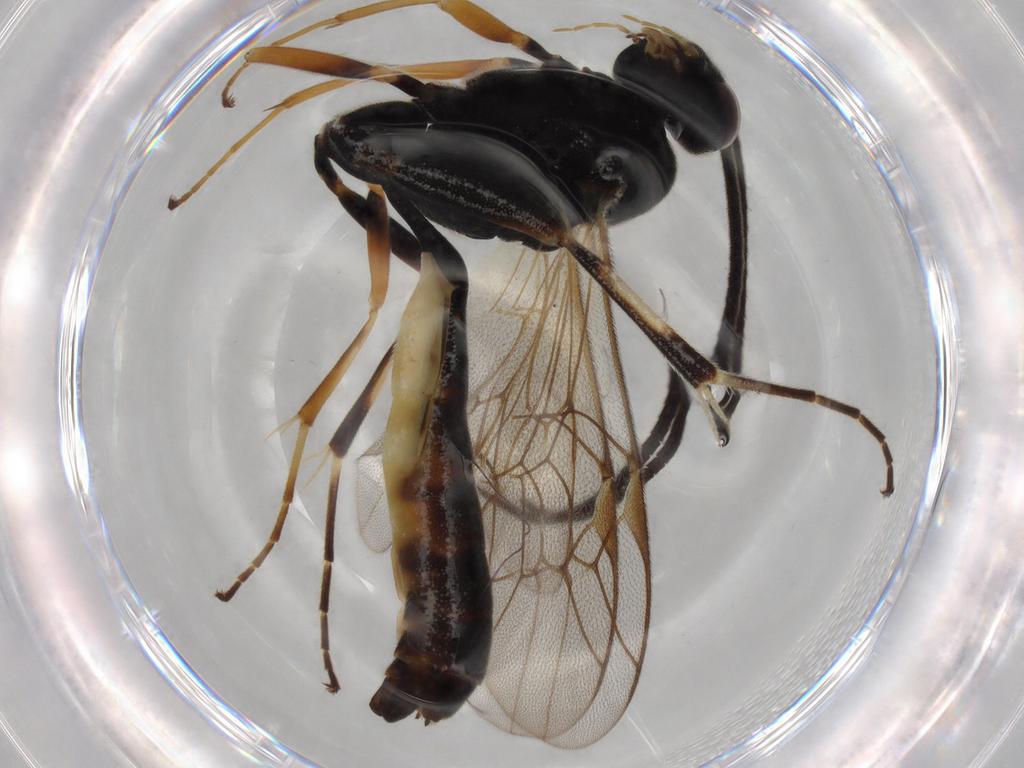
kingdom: Animalia
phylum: Arthropoda
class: Insecta
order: Hymenoptera
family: Ichneumonidae
